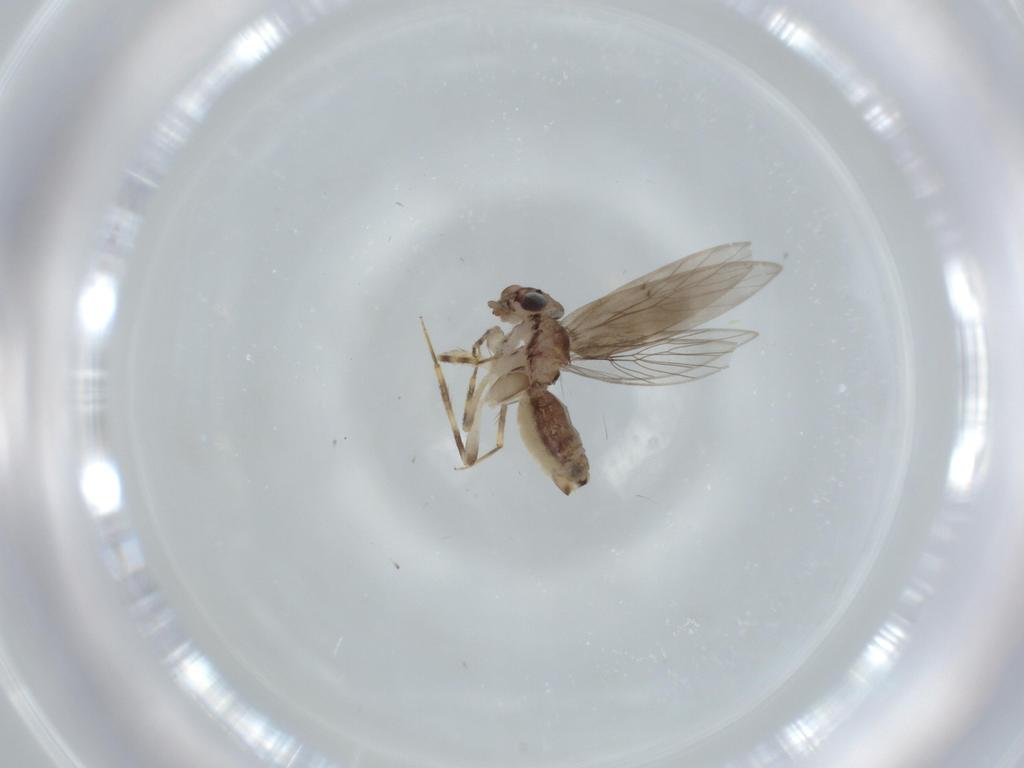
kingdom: Animalia
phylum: Arthropoda
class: Insecta
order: Psocodea
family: Lepidopsocidae
